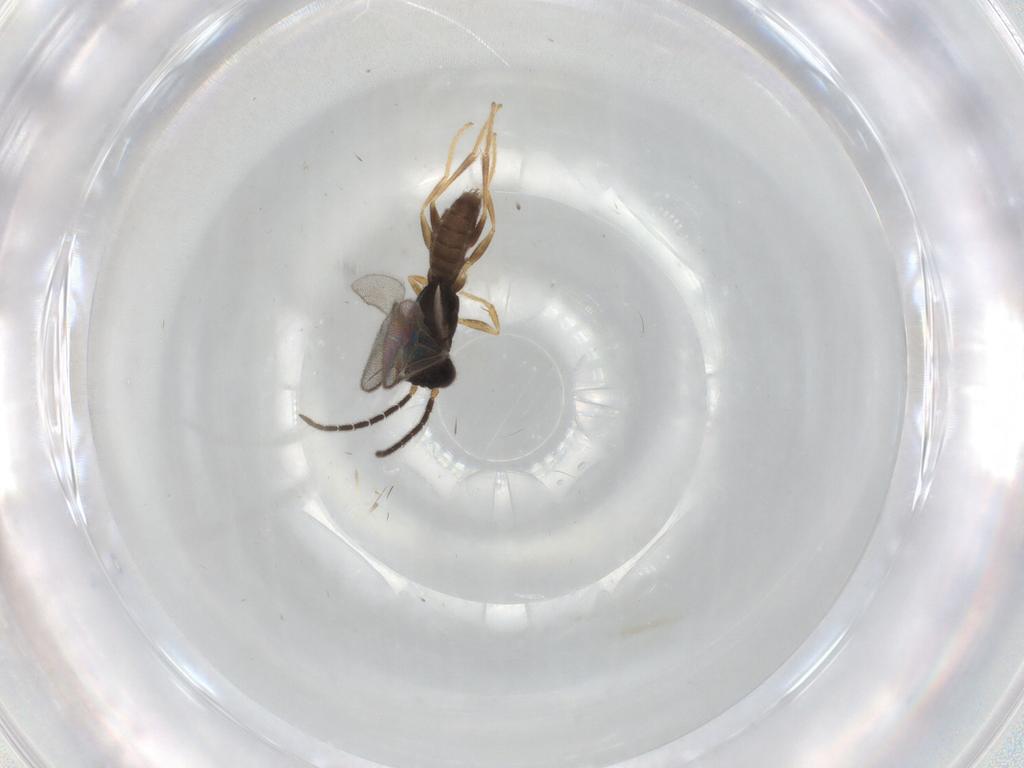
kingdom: Animalia
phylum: Arthropoda
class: Insecta
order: Hymenoptera
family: Dryinidae
